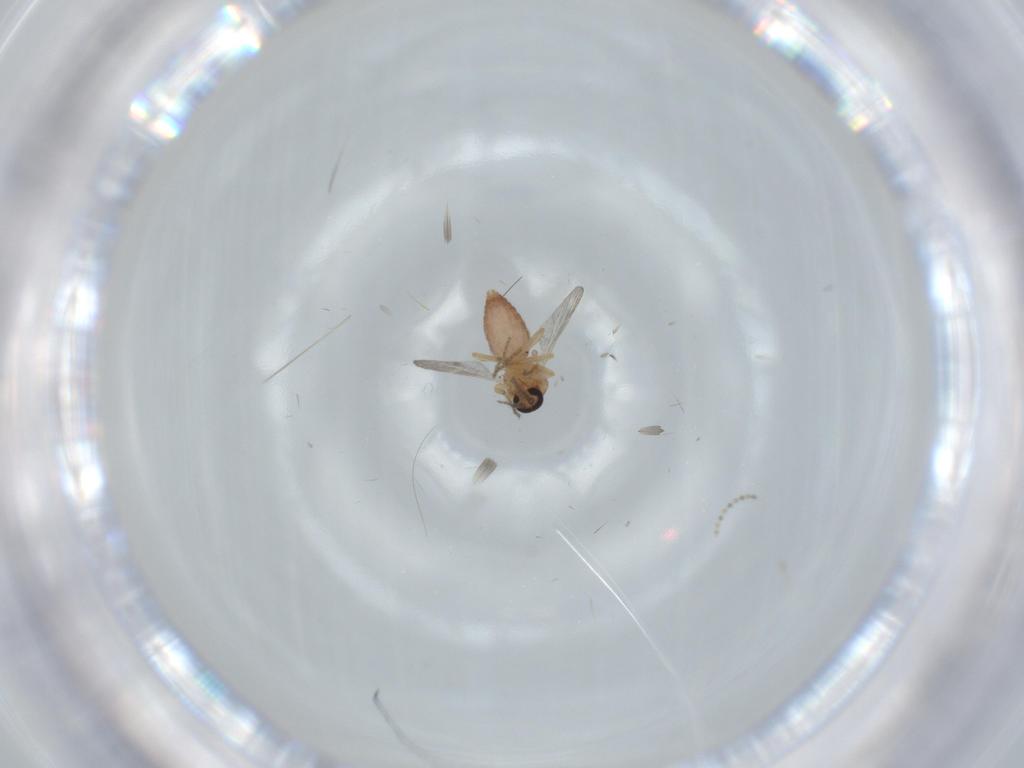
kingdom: Animalia
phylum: Arthropoda
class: Insecta
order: Diptera
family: Ceratopogonidae
